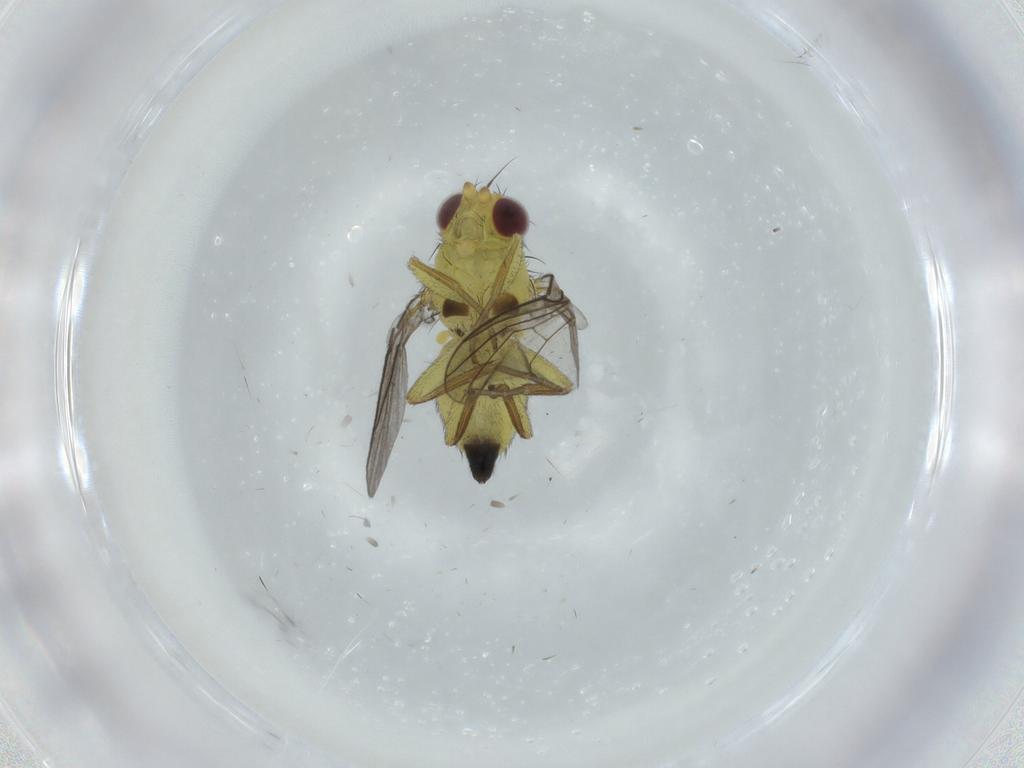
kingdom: Animalia
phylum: Arthropoda
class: Insecta
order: Diptera
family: Agromyzidae
